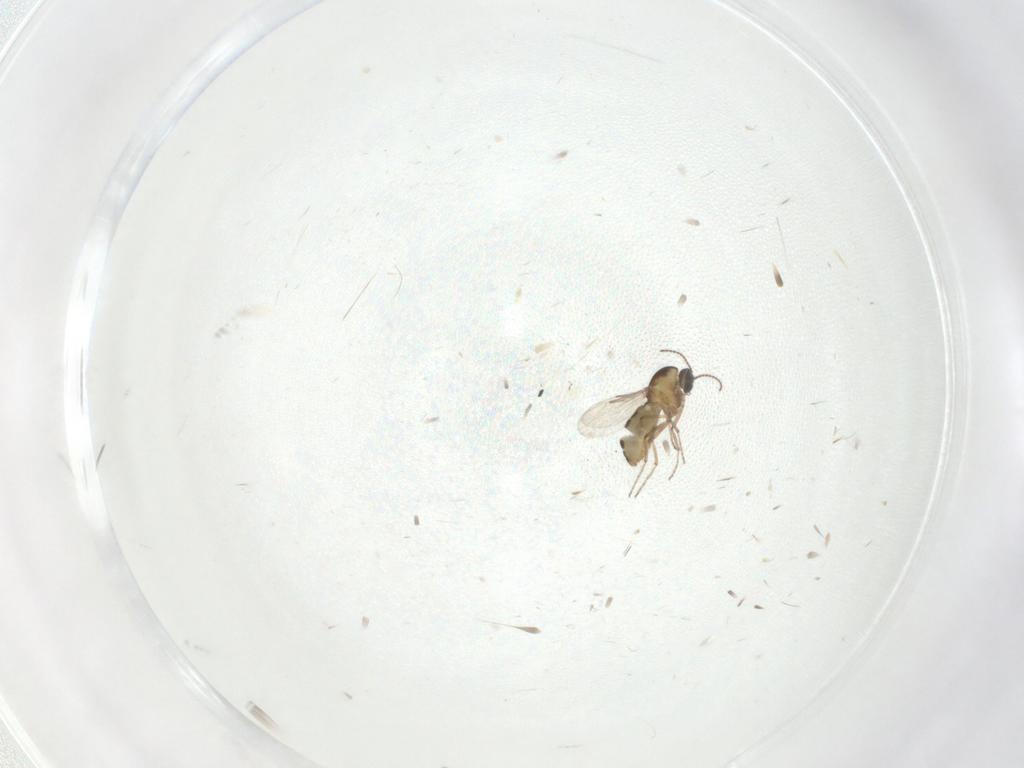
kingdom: Animalia
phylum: Arthropoda
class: Insecta
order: Diptera
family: Ceratopogonidae
